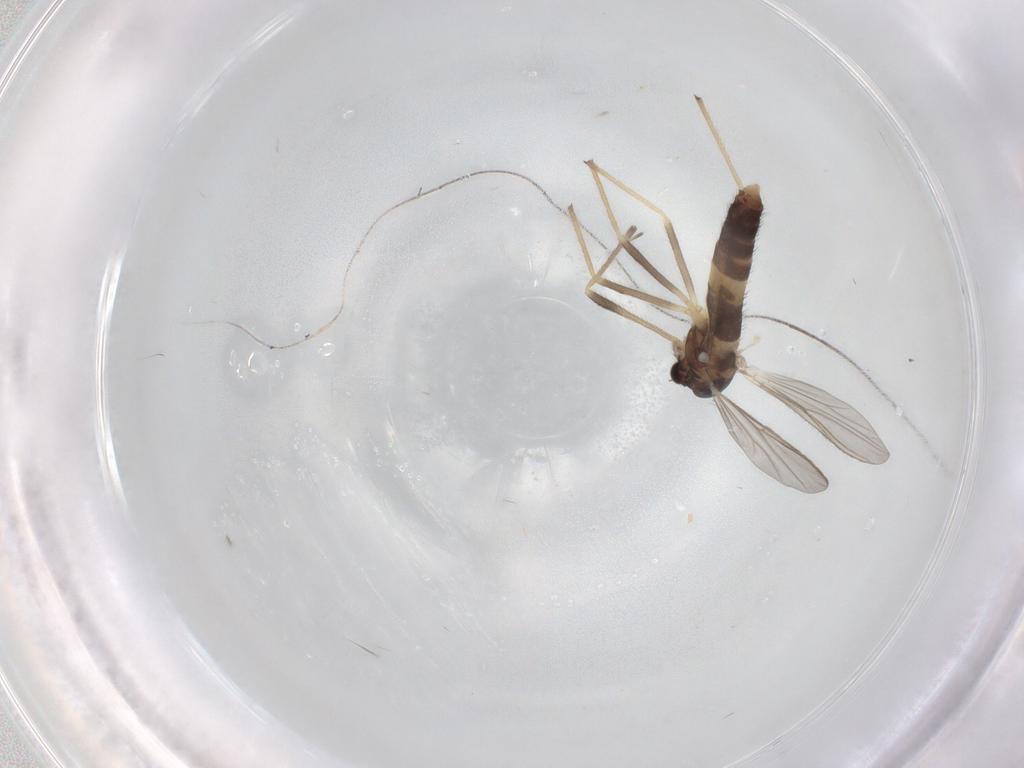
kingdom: Animalia
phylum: Arthropoda
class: Insecta
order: Diptera
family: Chironomidae
